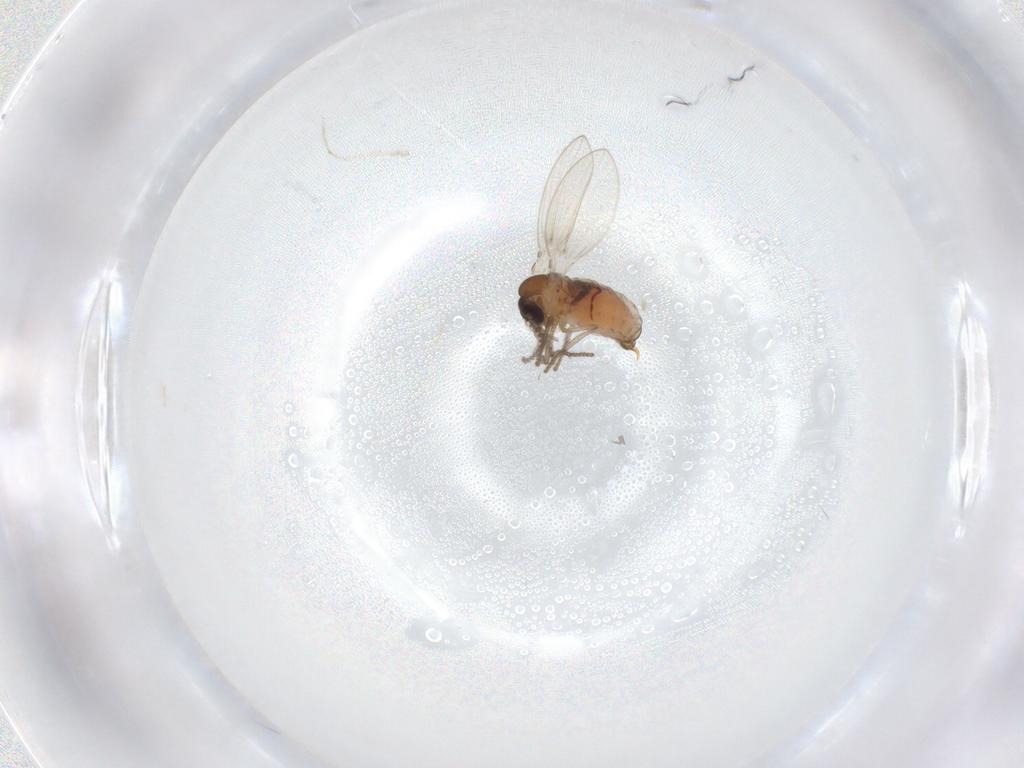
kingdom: Animalia
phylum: Arthropoda
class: Insecta
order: Diptera
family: Psychodidae
